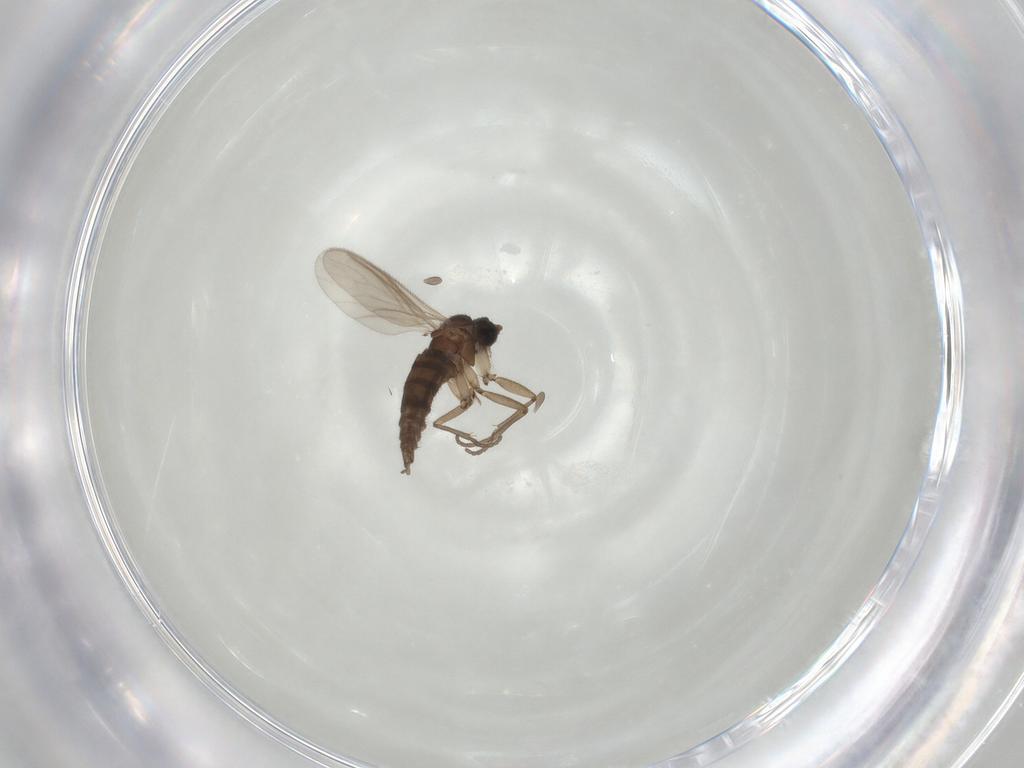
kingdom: Animalia
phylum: Arthropoda
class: Insecta
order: Diptera
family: Sciaridae
